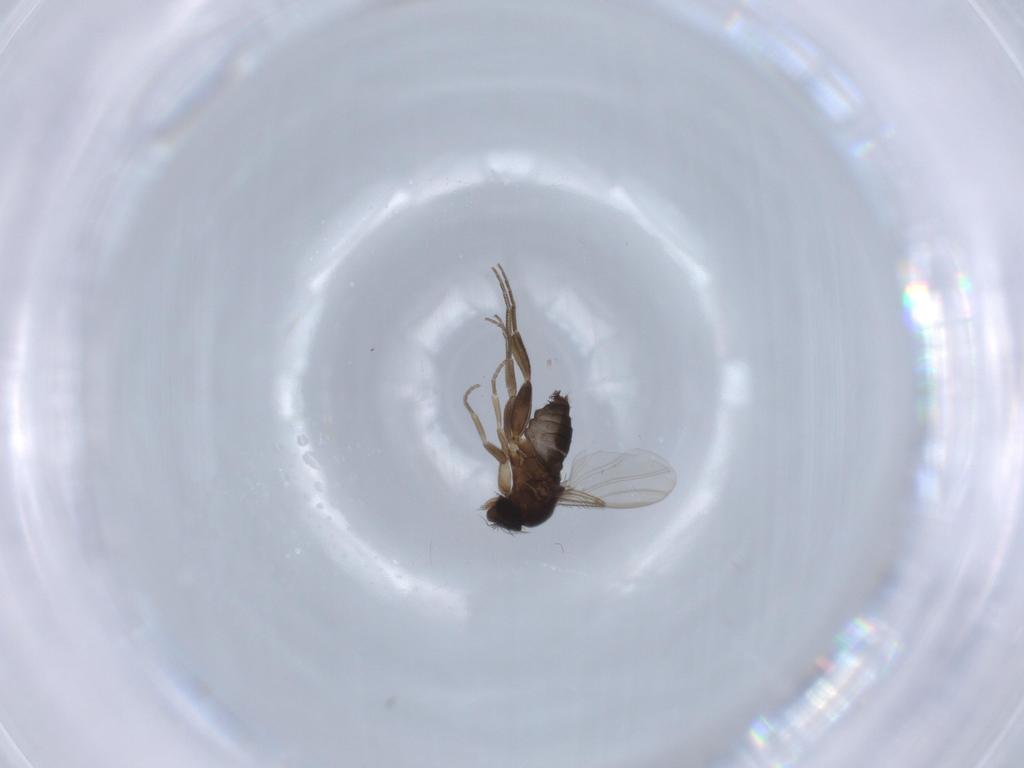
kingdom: Animalia
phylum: Arthropoda
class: Insecta
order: Diptera
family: Phoridae
